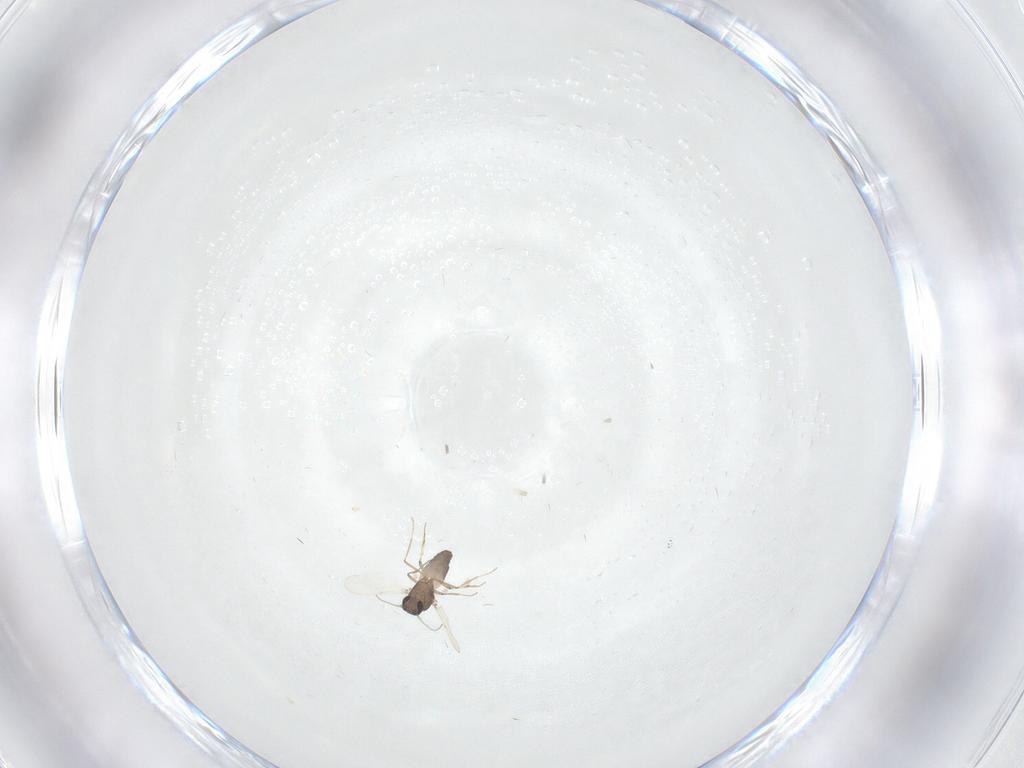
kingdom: Animalia
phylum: Arthropoda
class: Insecta
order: Diptera
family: Ceratopogonidae
